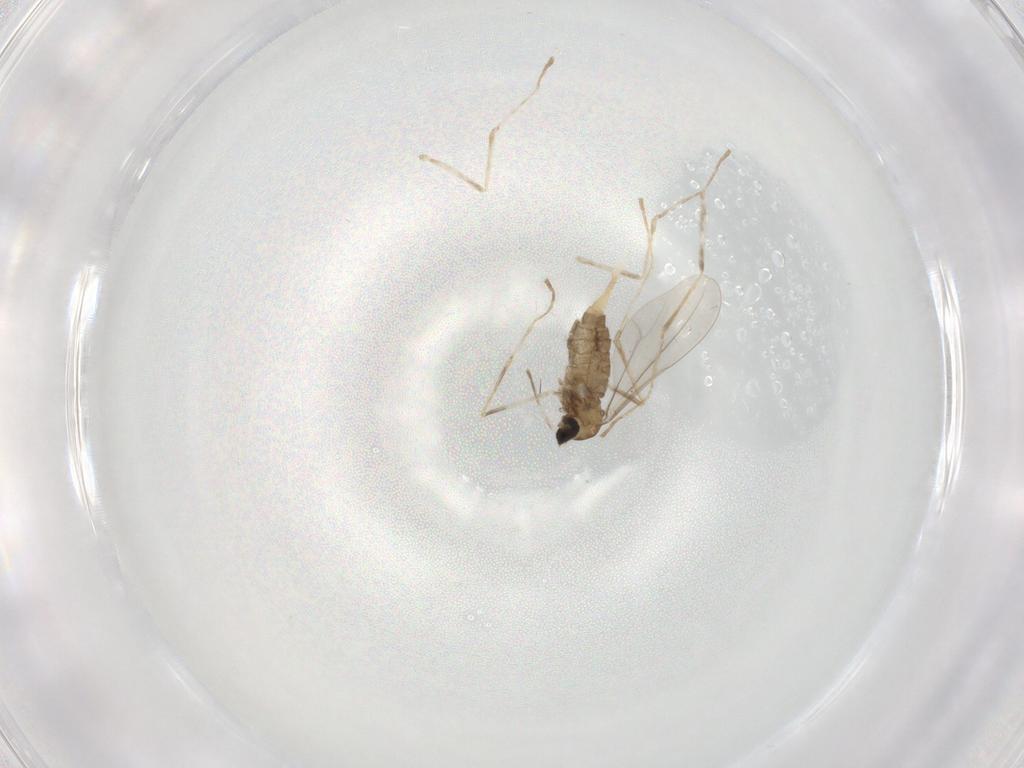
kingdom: Animalia
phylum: Arthropoda
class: Insecta
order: Diptera
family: Cecidomyiidae
